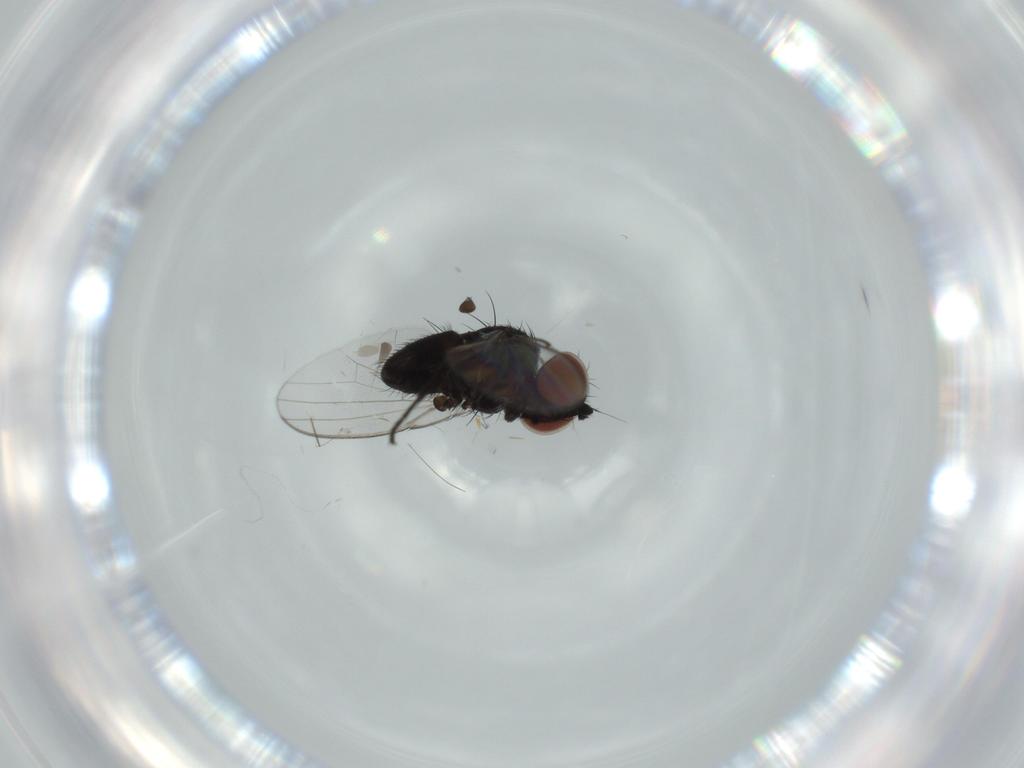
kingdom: Animalia
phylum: Arthropoda
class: Insecta
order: Diptera
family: Milichiidae
